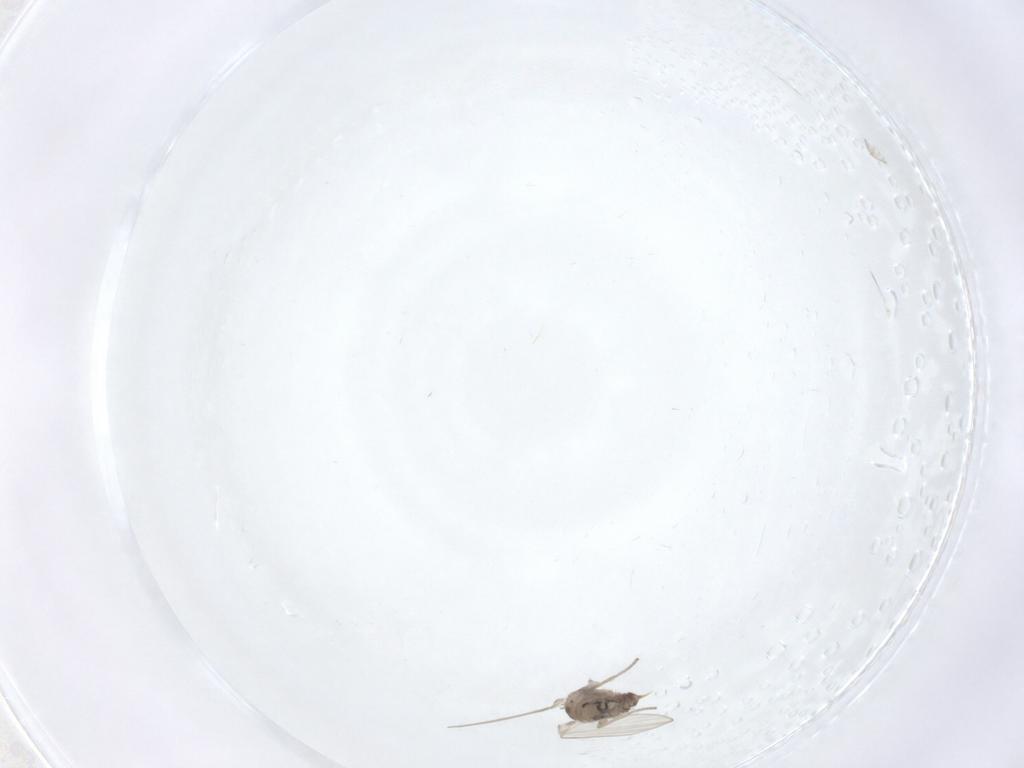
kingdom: Animalia
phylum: Arthropoda
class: Insecta
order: Diptera
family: Psychodidae
